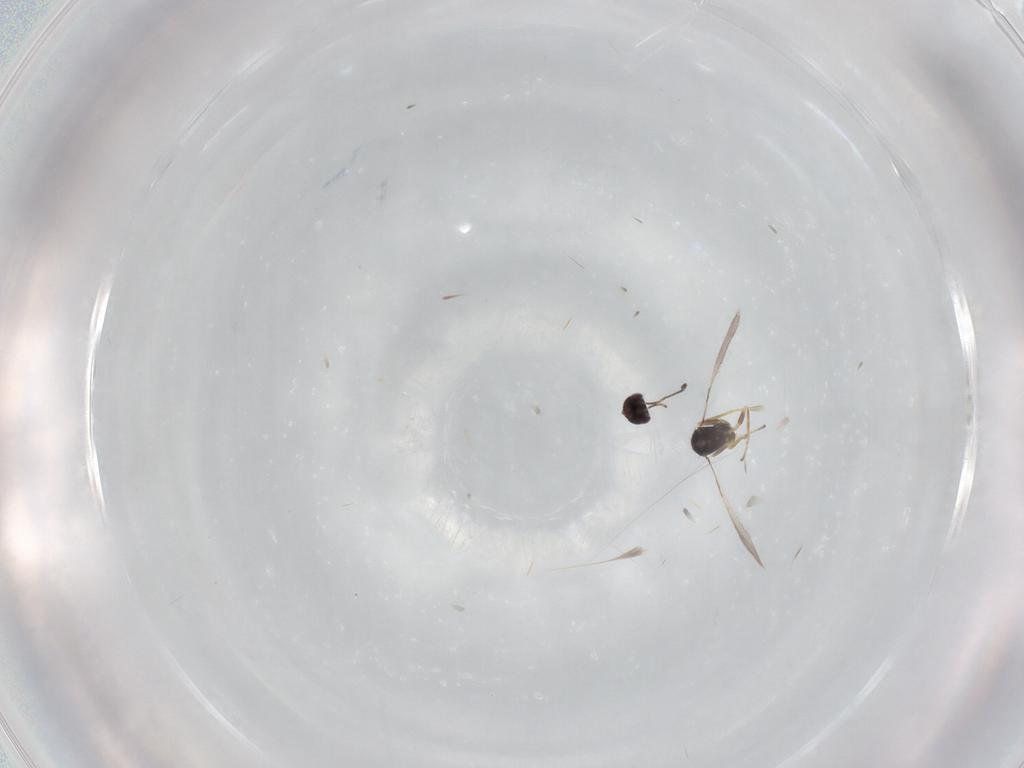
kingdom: Animalia
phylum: Arthropoda
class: Insecta
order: Hymenoptera
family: Mymaridae
